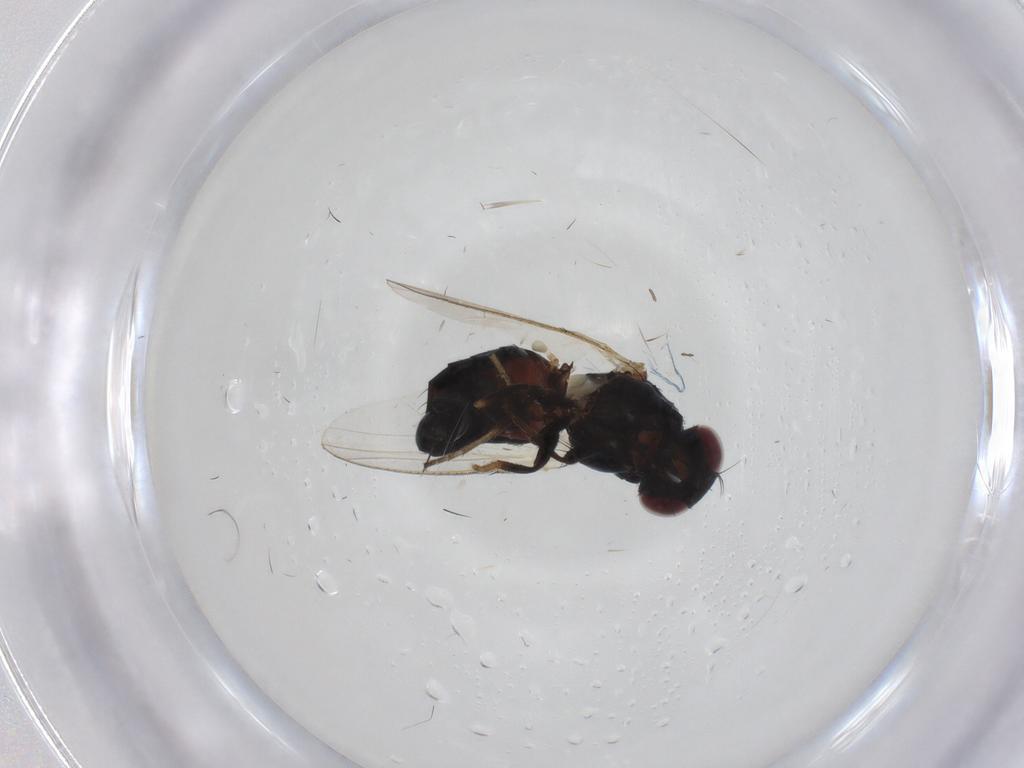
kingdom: Animalia
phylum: Arthropoda
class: Insecta
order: Diptera
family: Carnidae
